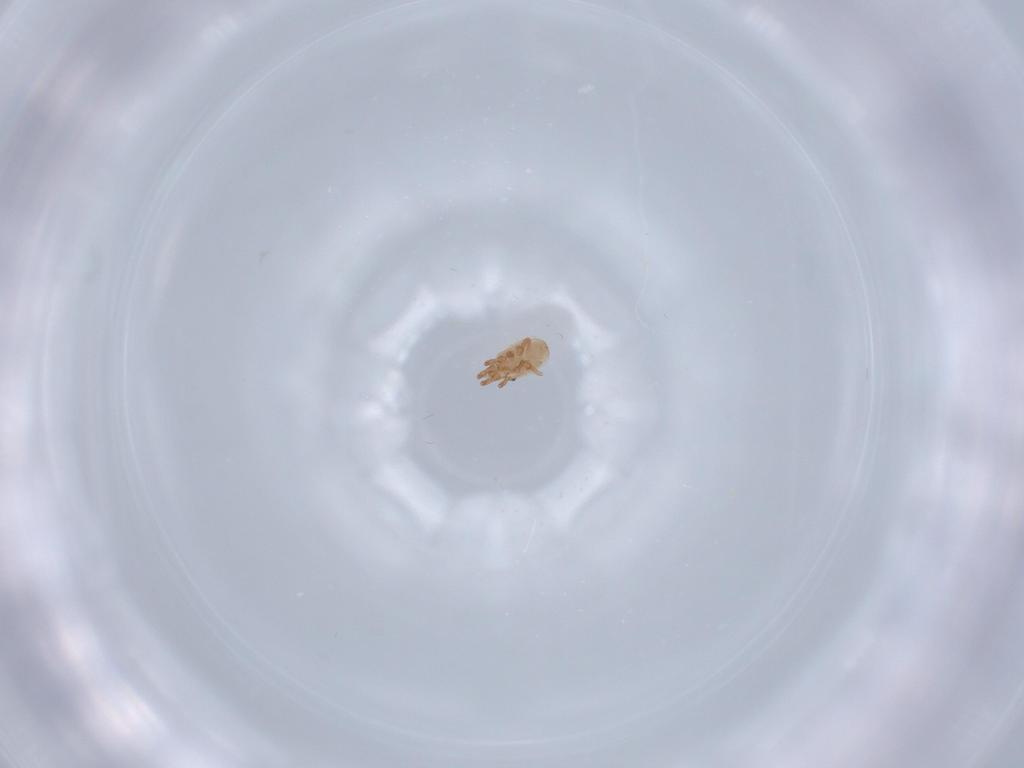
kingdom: Animalia
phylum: Arthropoda
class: Arachnida
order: Mesostigmata
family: Dinychidae
